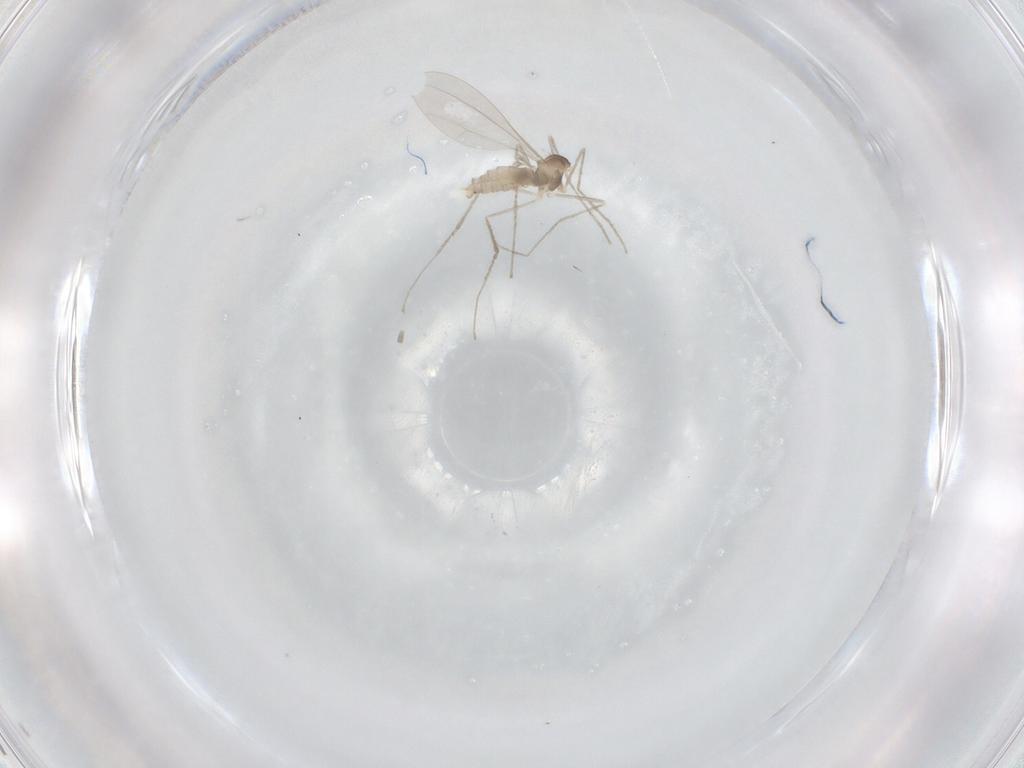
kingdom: Animalia
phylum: Arthropoda
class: Insecta
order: Diptera
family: Cecidomyiidae
